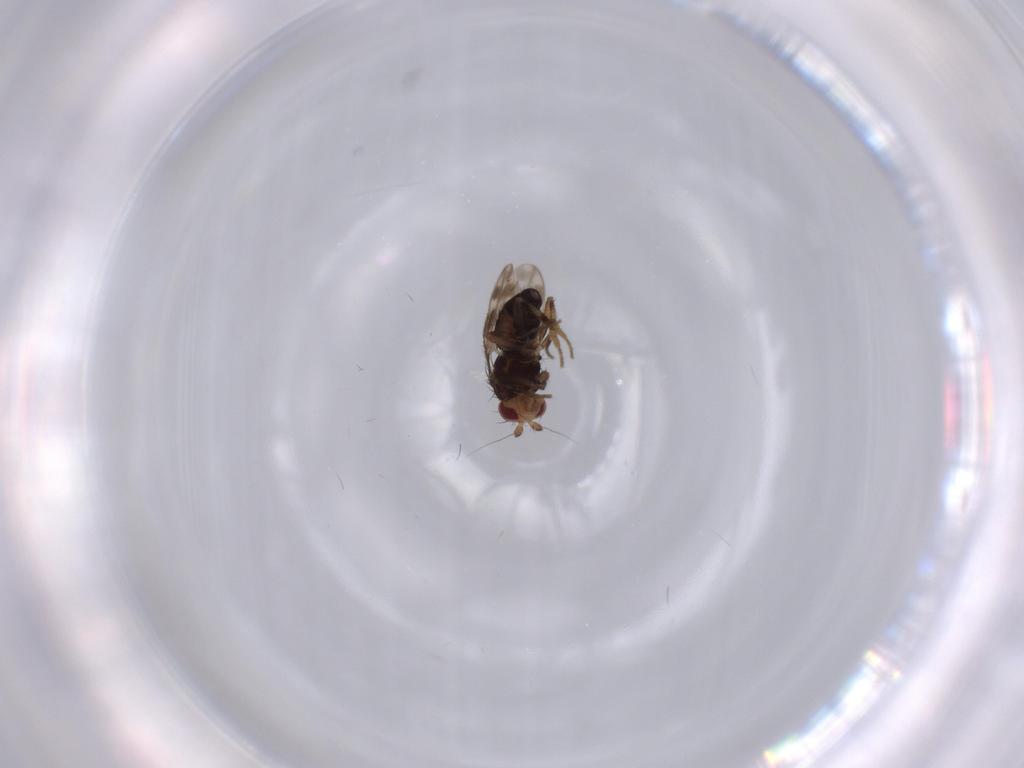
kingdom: Animalia
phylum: Arthropoda
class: Insecta
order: Diptera
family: Sphaeroceridae
